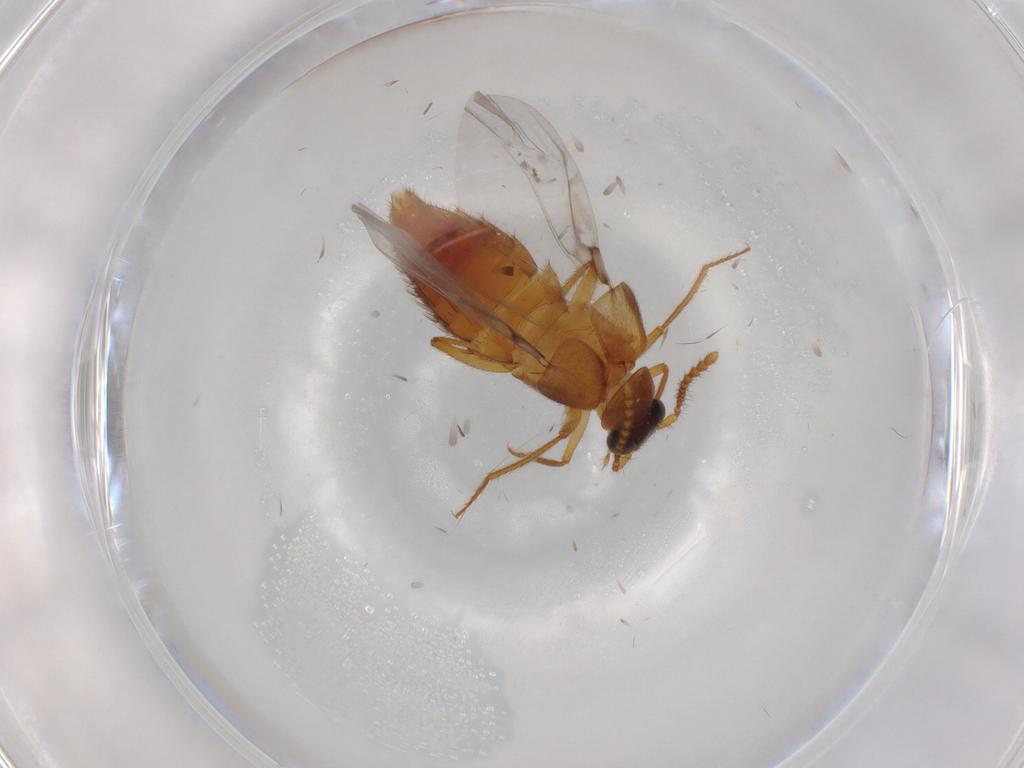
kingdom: Animalia
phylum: Arthropoda
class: Insecta
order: Coleoptera
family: Staphylinidae
